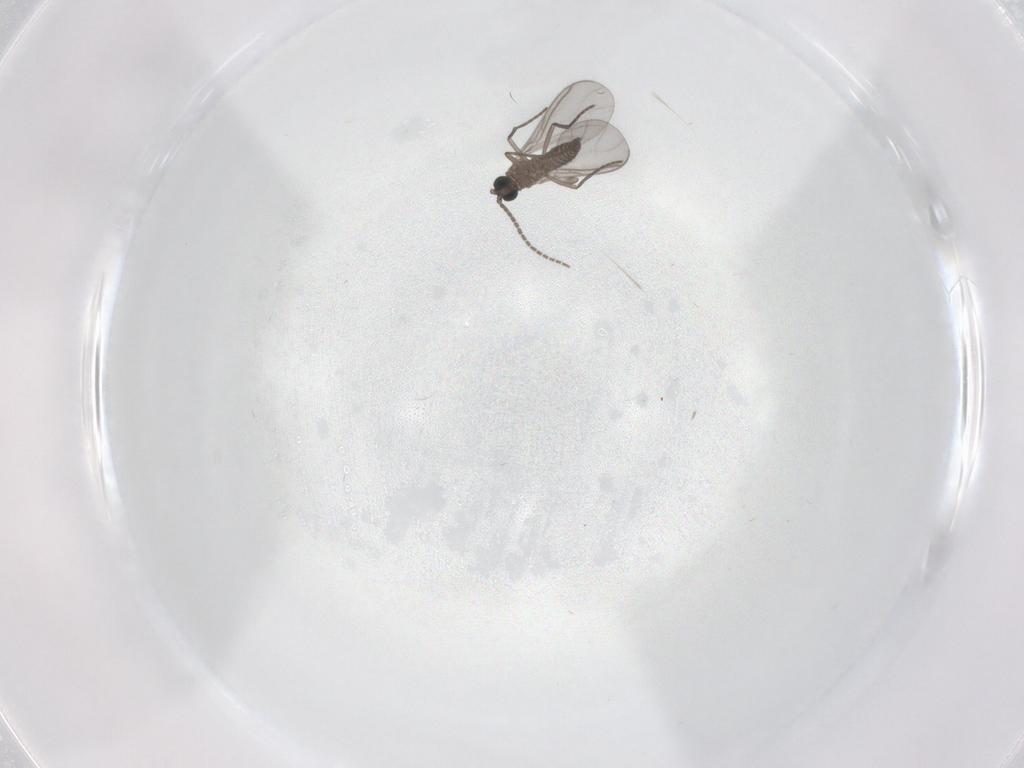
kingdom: Animalia
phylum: Arthropoda
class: Insecta
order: Diptera
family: Sciaridae
